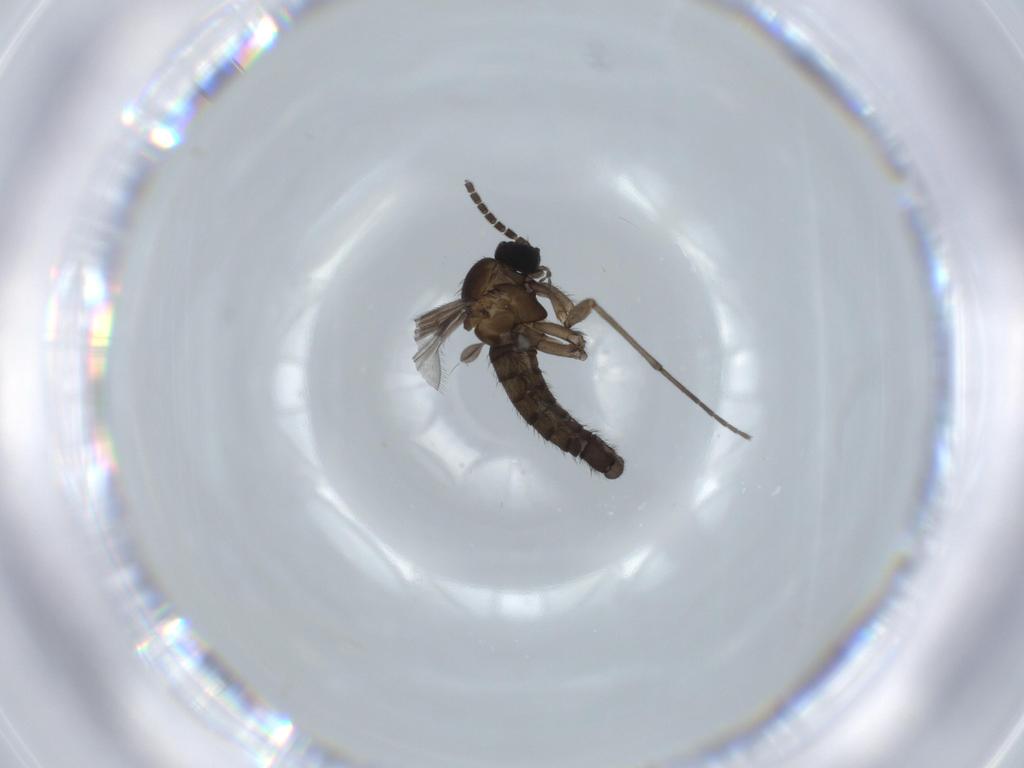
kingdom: Animalia
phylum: Arthropoda
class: Insecta
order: Diptera
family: Sciaridae
